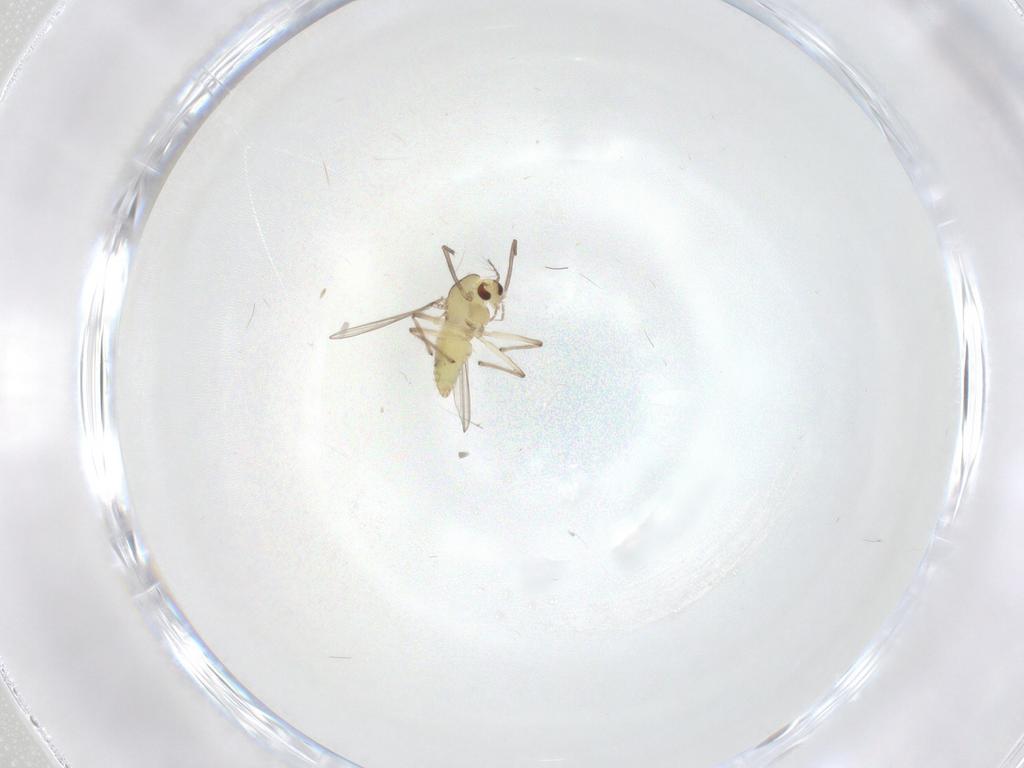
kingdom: Animalia
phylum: Arthropoda
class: Insecta
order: Diptera
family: Chironomidae
